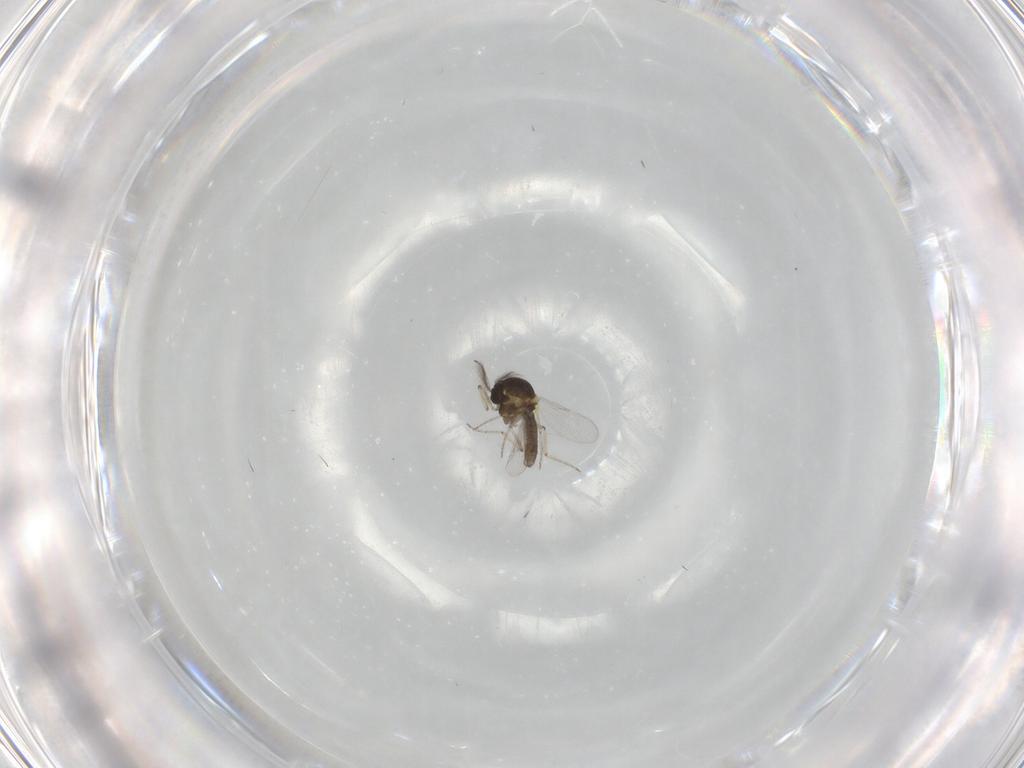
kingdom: Animalia
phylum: Arthropoda
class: Insecta
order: Diptera
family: Ceratopogonidae
